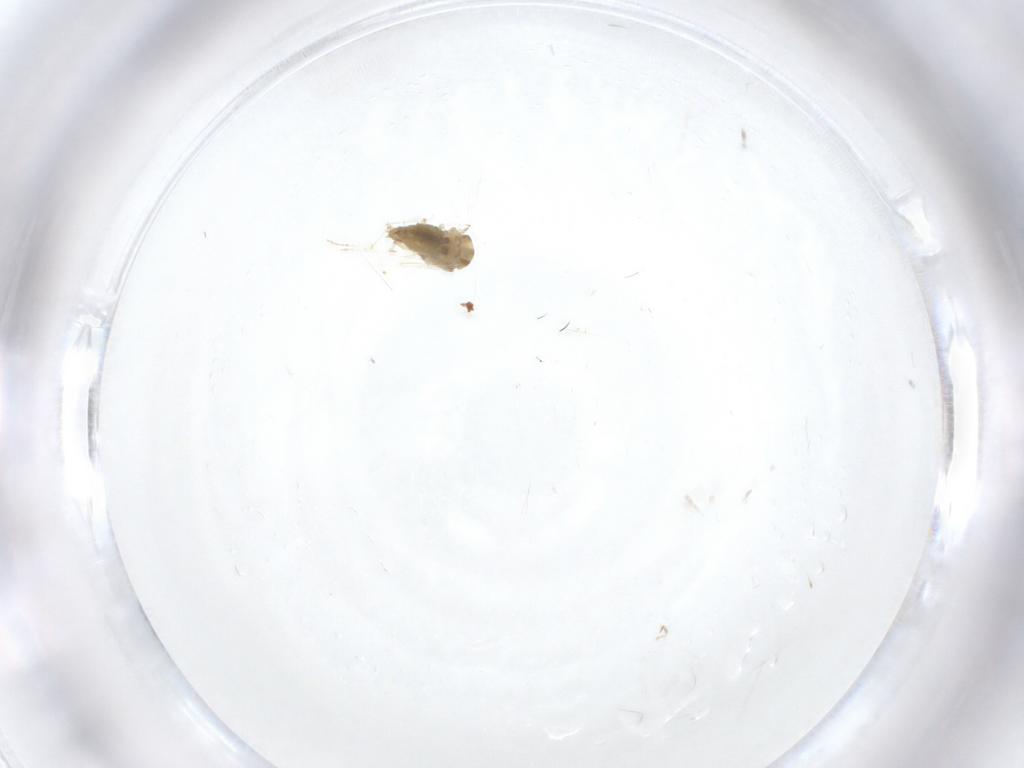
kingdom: Animalia
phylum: Arthropoda
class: Insecta
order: Diptera
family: Chironomidae
